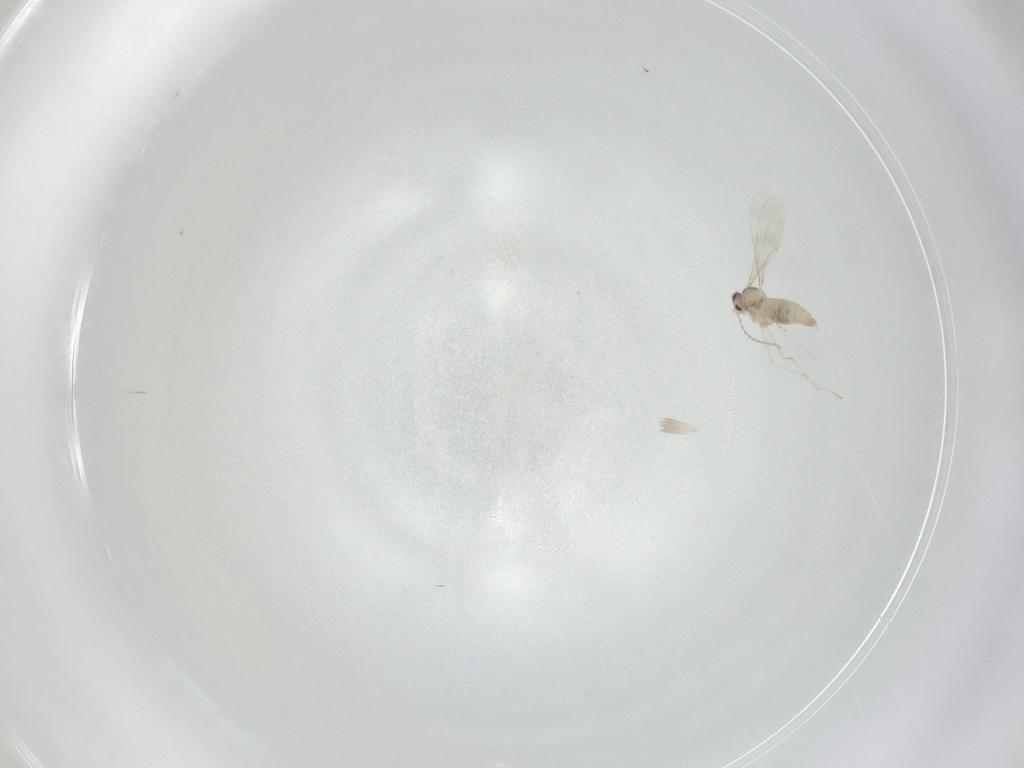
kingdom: Animalia
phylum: Arthropoda
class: Insecta
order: Diptera
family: Cecidomyiidae
